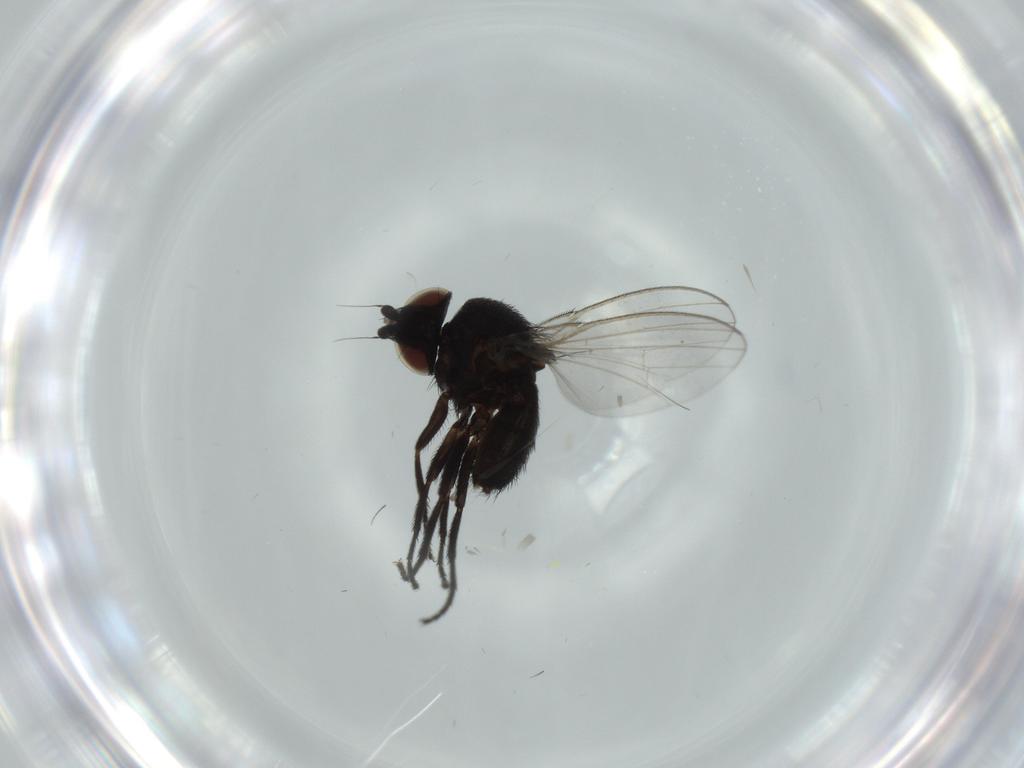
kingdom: Animalia
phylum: Arthropoda
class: Insecta
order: Diptera
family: Milichiidae
